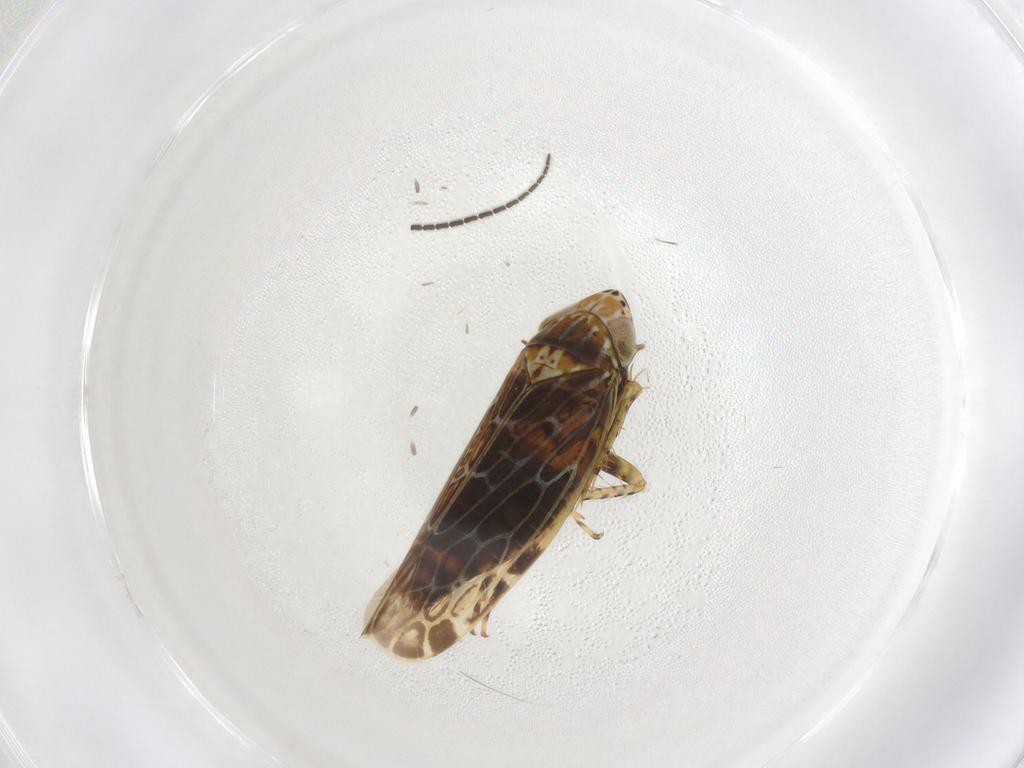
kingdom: Animalia
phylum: Arthropoda
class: Insecta
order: Hemiptera
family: Cicadellidae
